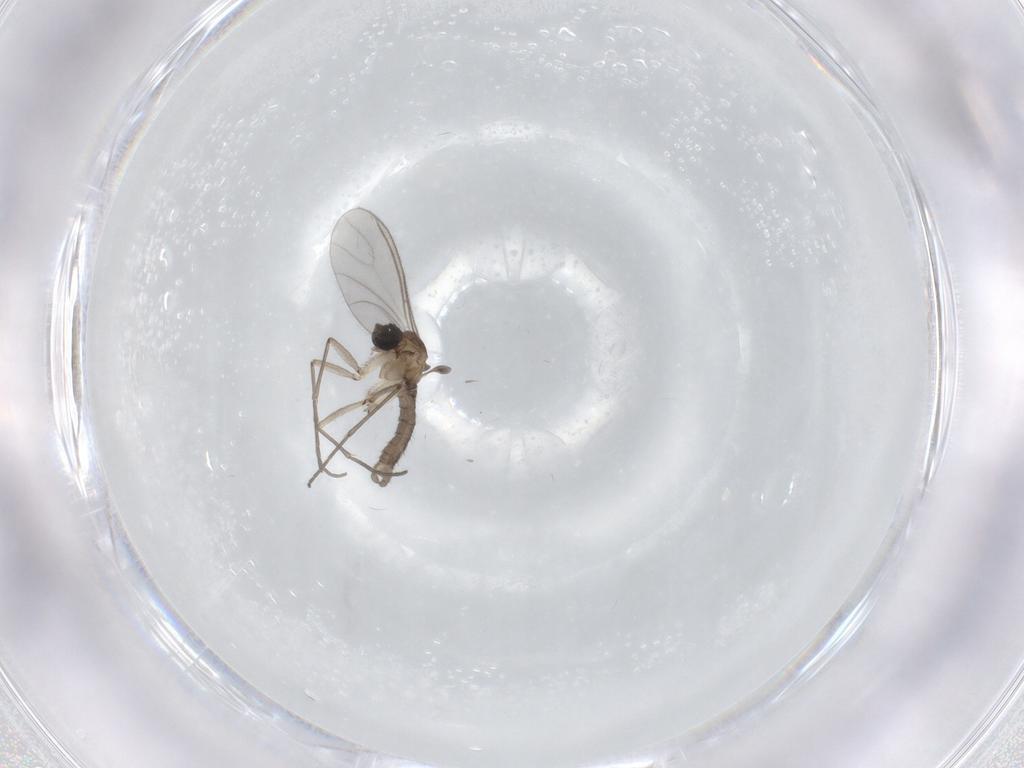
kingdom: Animalia
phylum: Arthropoda
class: Insecta
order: Diptera
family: Sciaridae
